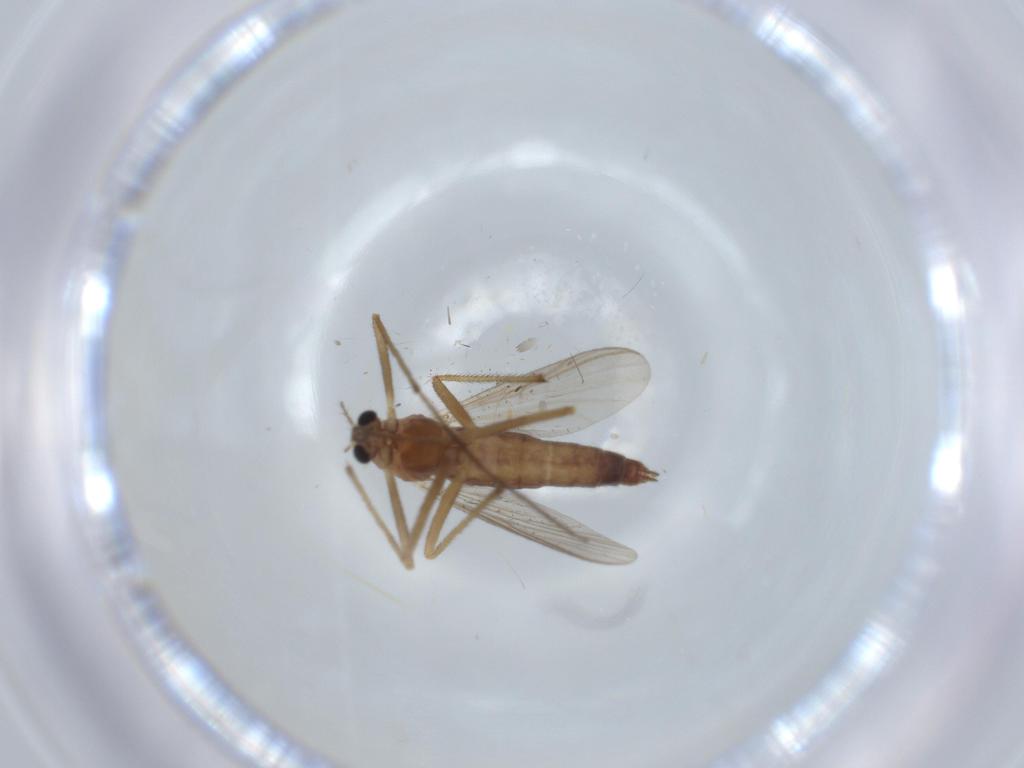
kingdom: Animalia
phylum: Arthropoda
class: Insecta
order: Diptera
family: Chironomidae
